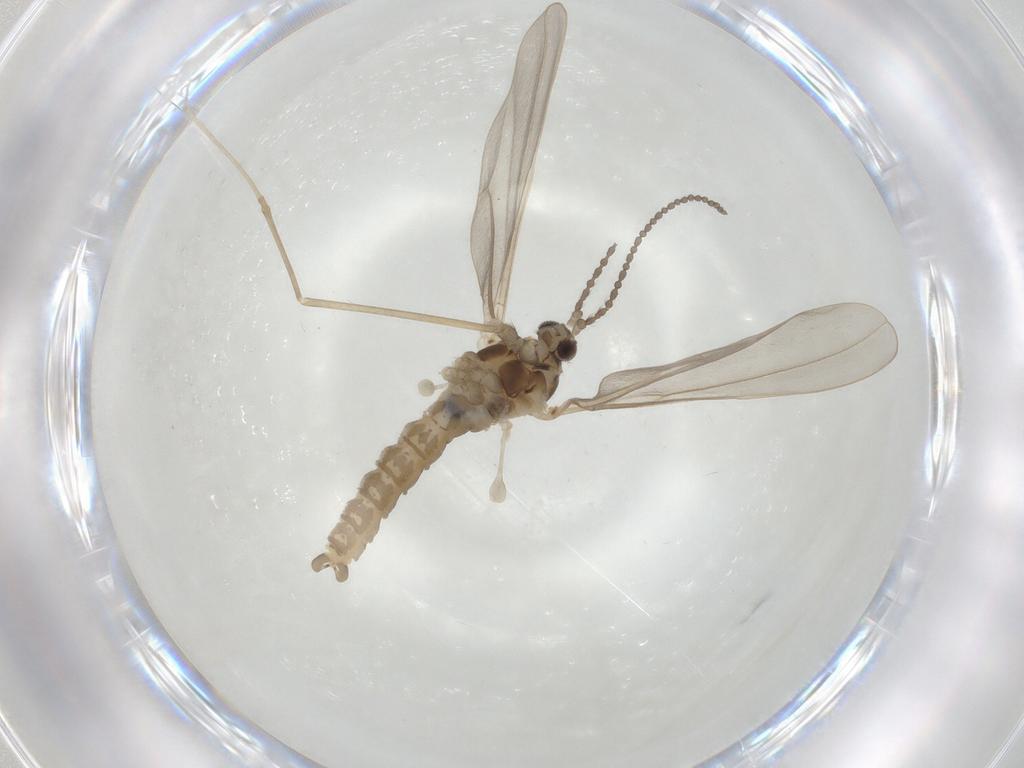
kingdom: Animalia
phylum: Arthropoda
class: Insecta
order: Diptera
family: Cecidomyiidae
